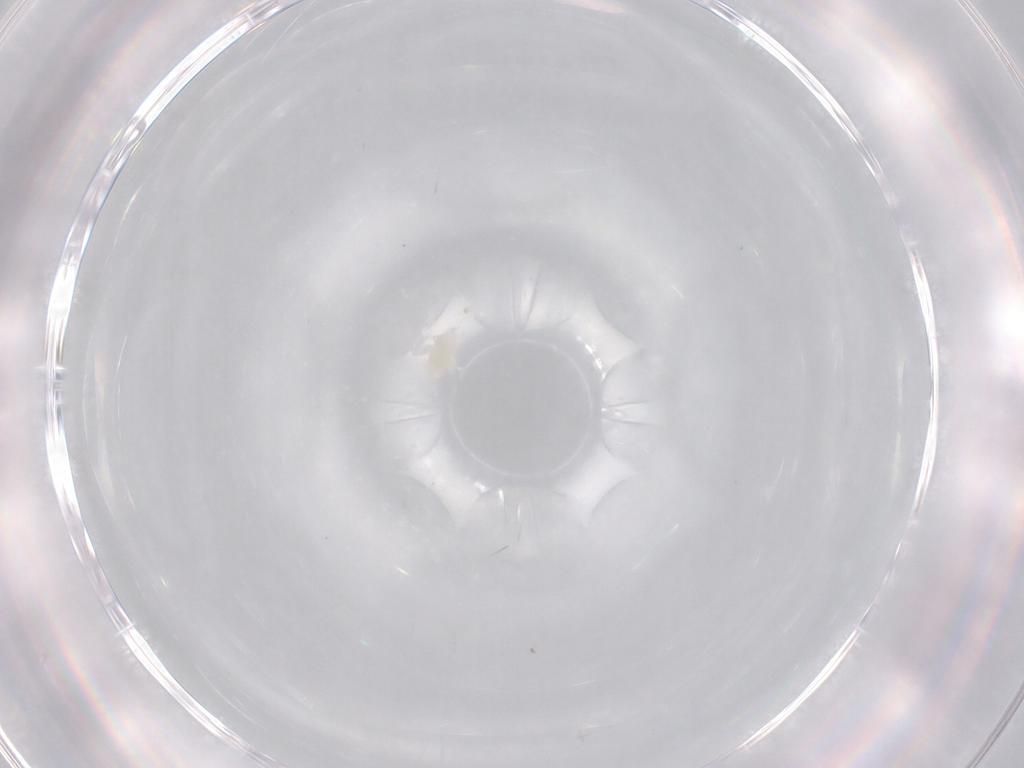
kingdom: Animalia
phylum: Arthropoda
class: Arachnida
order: Trombidiformes
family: Eupodidae
